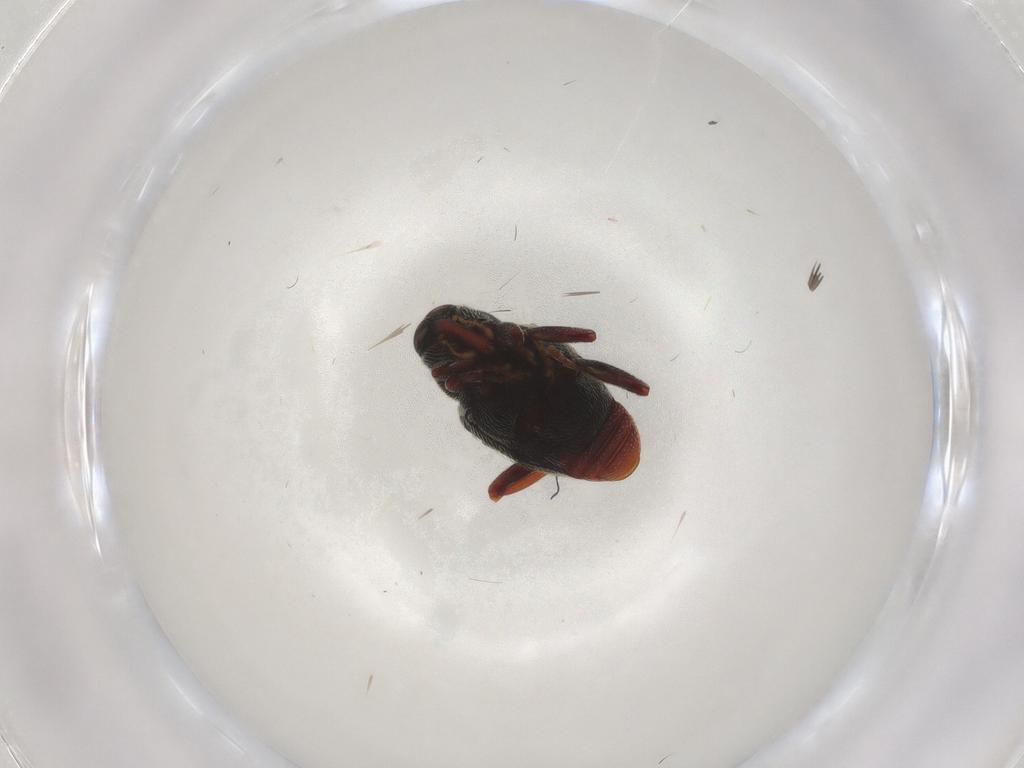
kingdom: Animalia
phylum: Arthropoda
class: Insecta
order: Coleoptera
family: Curculionidae
